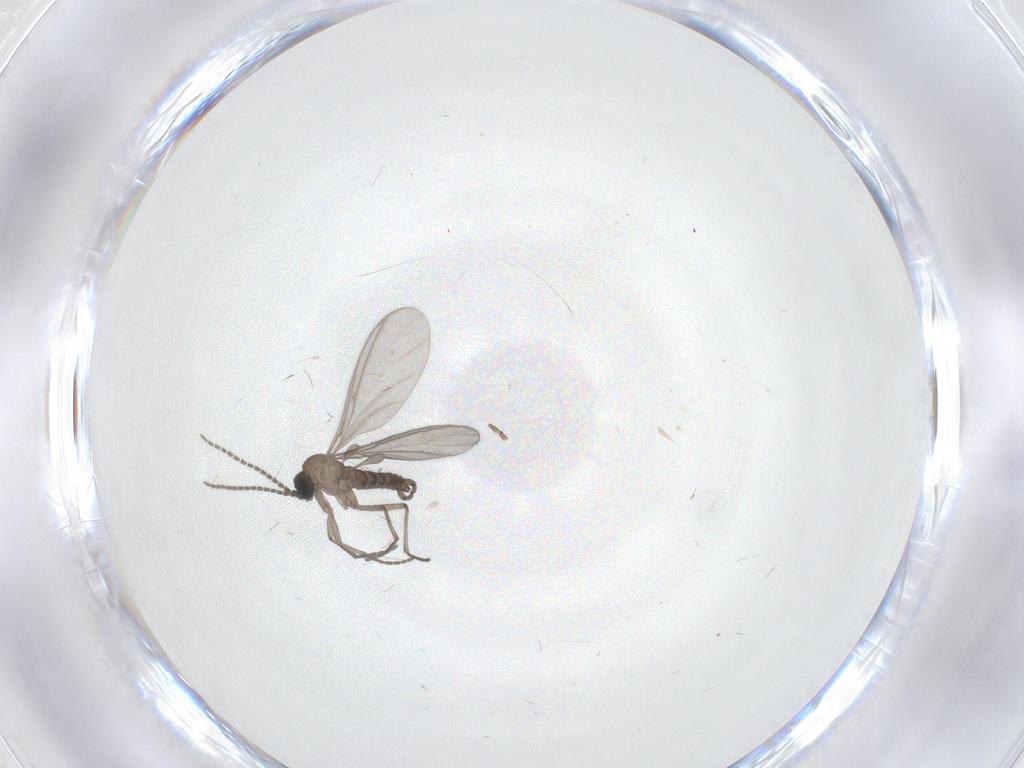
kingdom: Animalia
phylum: Arthropoda
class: Insecta
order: Diptera
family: Sciaridae
